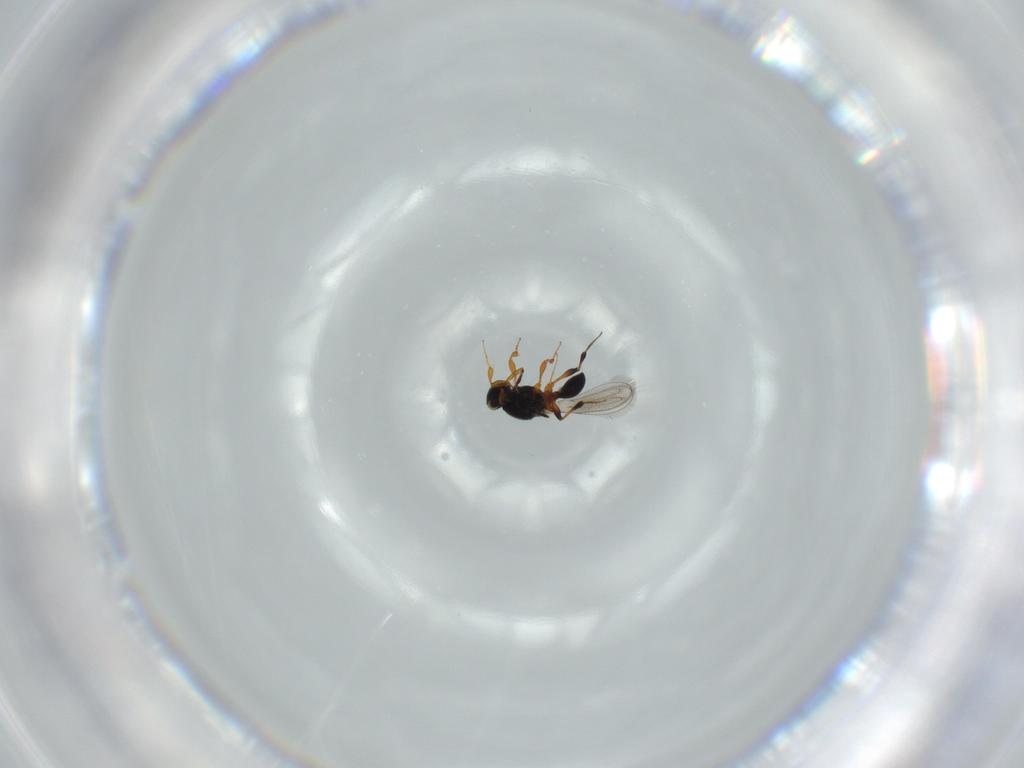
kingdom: Animalia
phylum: Arthropoda
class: Insecta
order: Hymenoptera
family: Platygastridae
